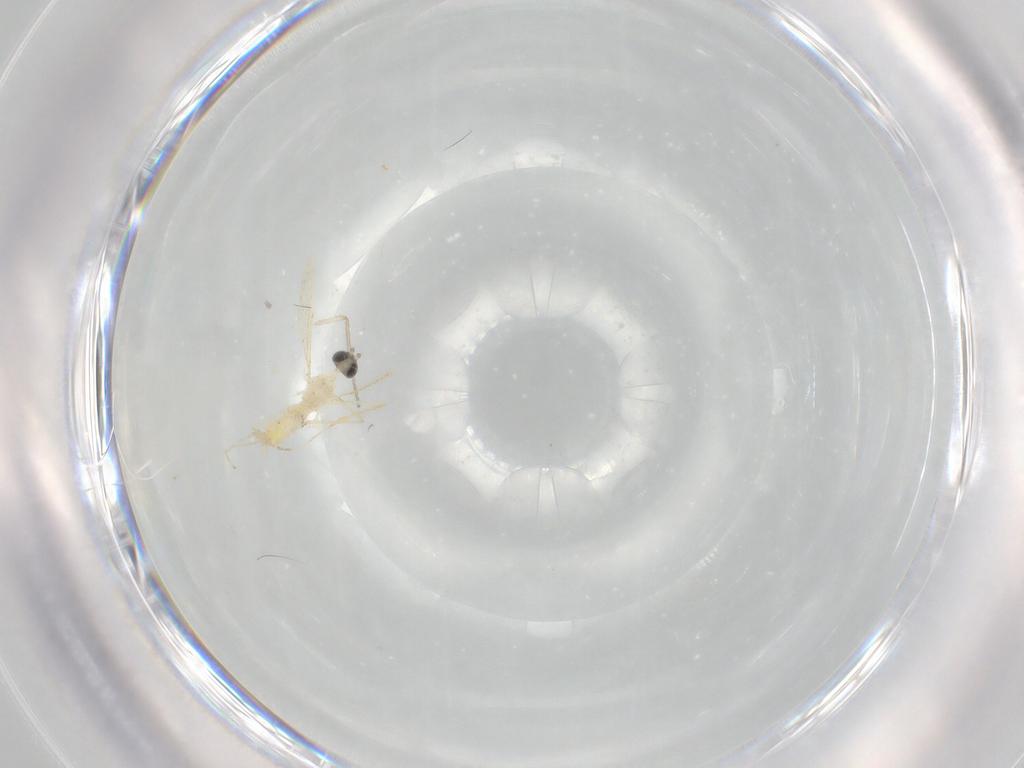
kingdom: Animalia
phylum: Arthropoda
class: Insecta
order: Diptera
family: Cecidomyiidae
